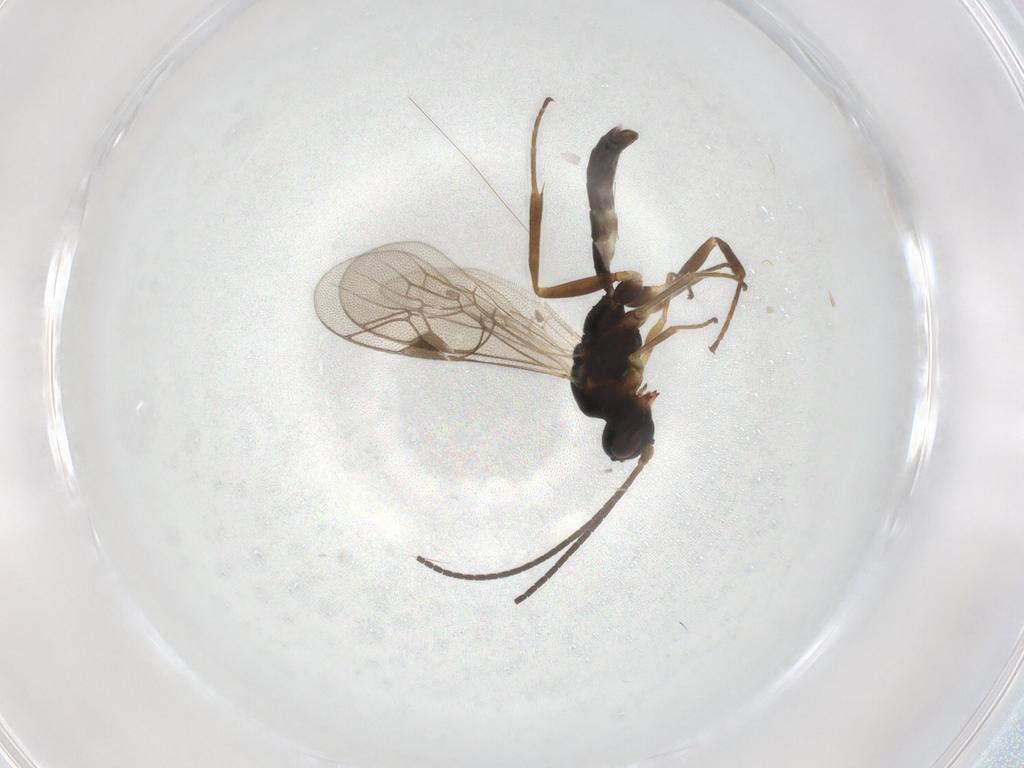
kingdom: Animalia
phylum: Arthropoda
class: Insecta
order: Hymenoptera
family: Ichneumonidae
